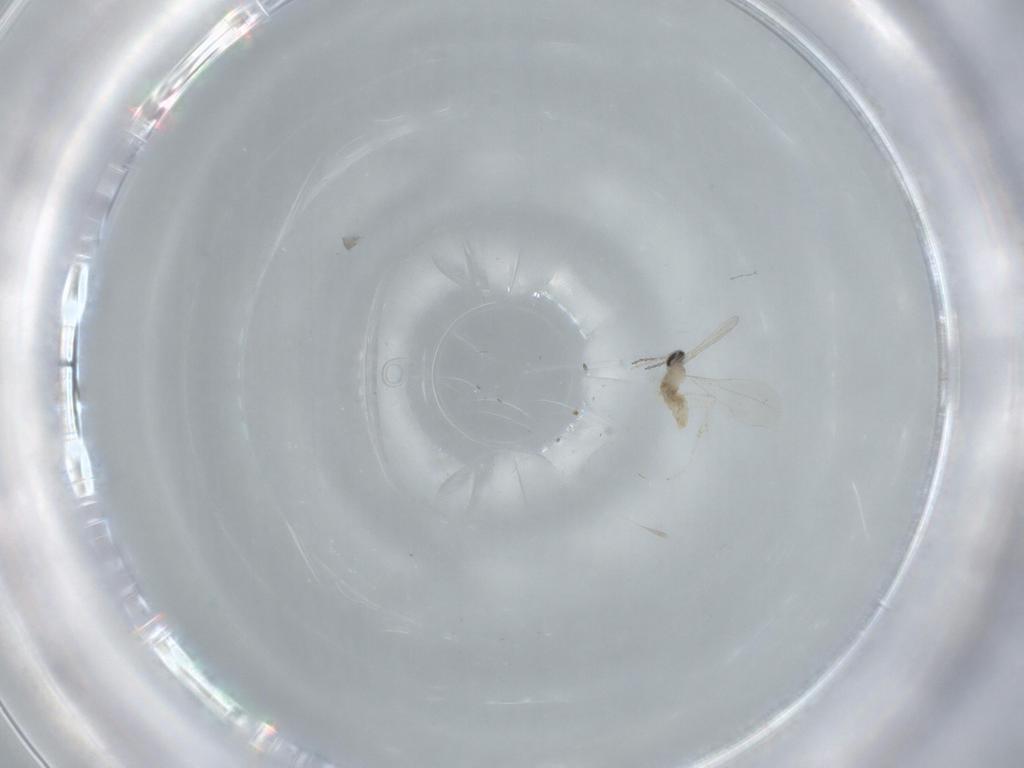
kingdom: Animalia
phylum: Arthropoda
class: Insecta
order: Diptera
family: Cecidomyiidae
